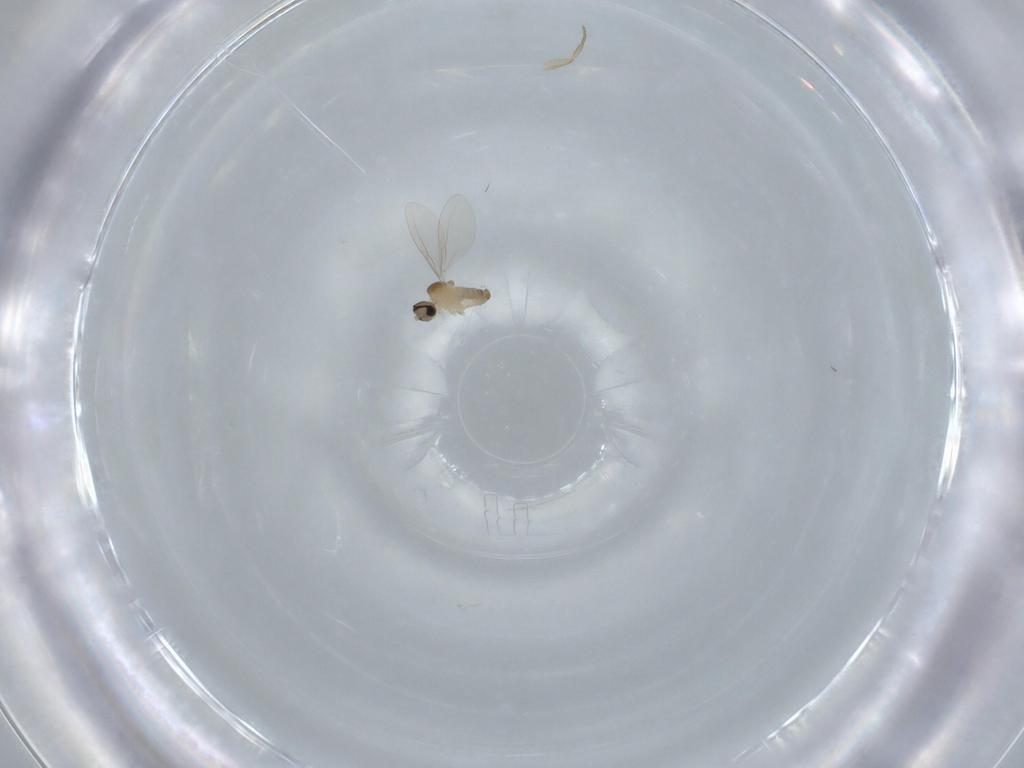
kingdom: Animalia
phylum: Arthropoda
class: Insecta
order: Diptera
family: Cecidomyiidae
